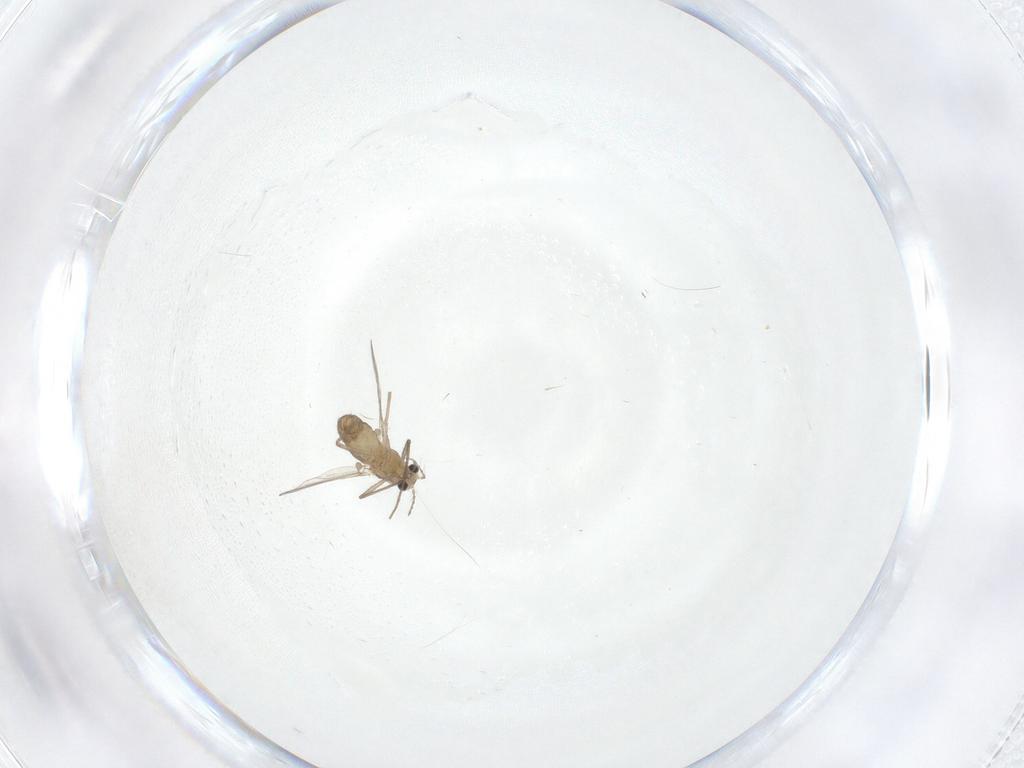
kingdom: Animalia
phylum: Arthropoda
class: Insecta
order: Diptera
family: Chironomidae
